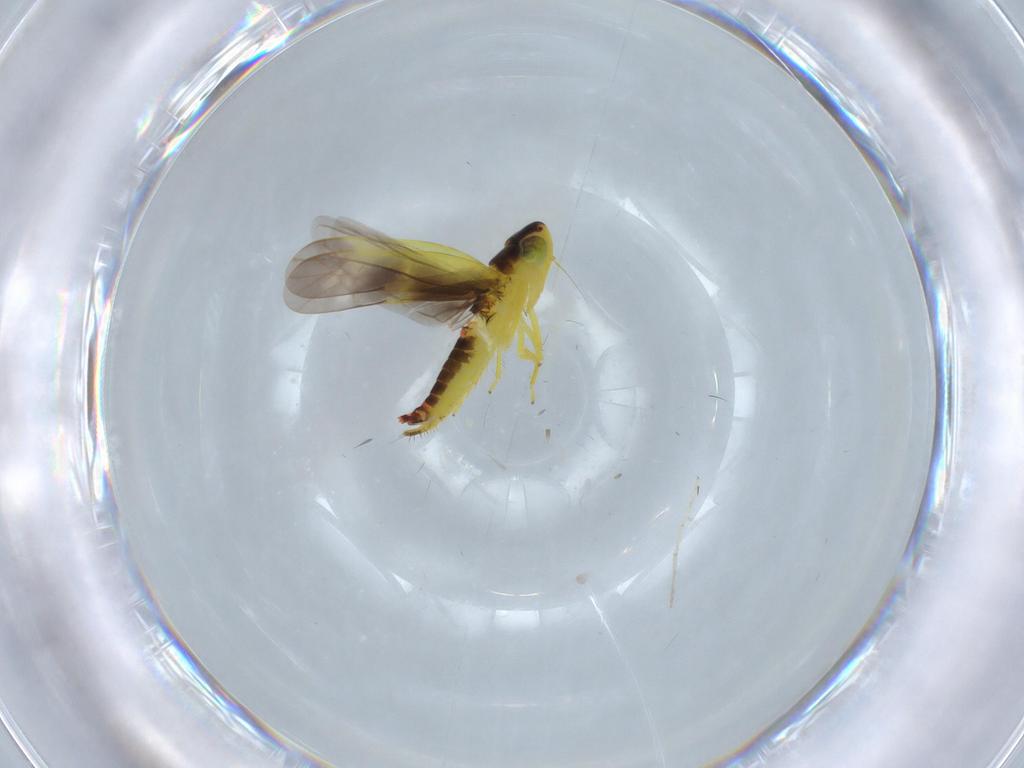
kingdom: Animalia
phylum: Arthropoda
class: Insecta
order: Hemiptera
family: Cicadellidae
